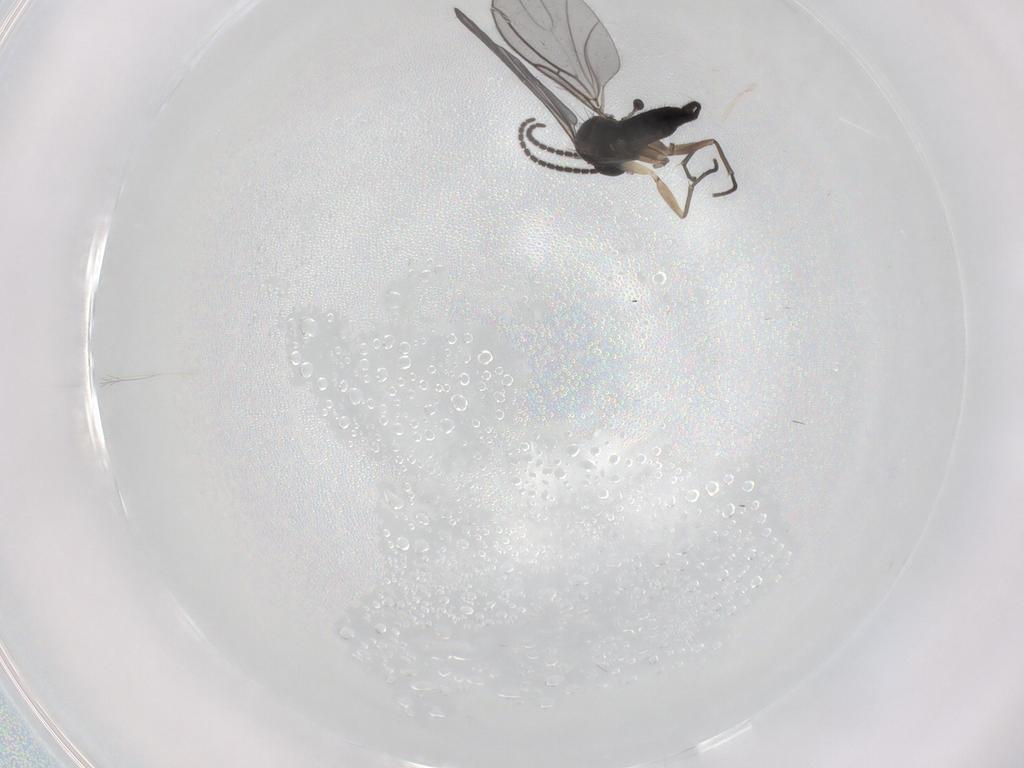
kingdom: Animalia
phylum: Arthropoda
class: Insecta
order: Diptera
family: Sciaridae
